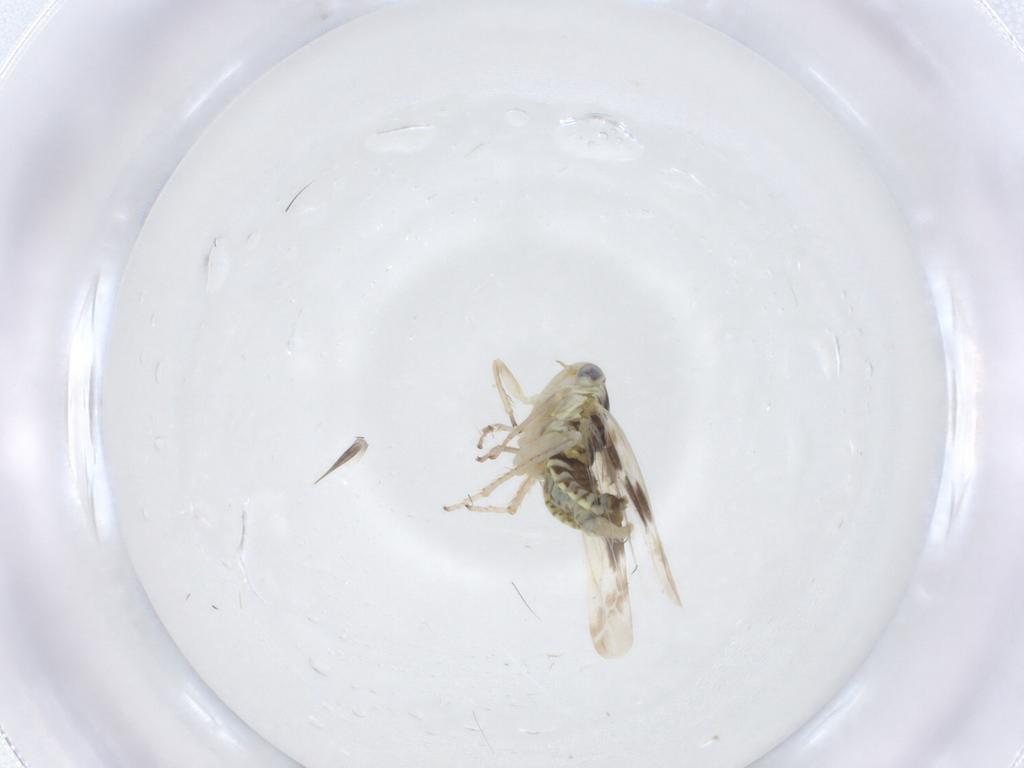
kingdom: Animalia
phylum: Arthropoda
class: Insecta
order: Hemiptera
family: Cicadellidae
